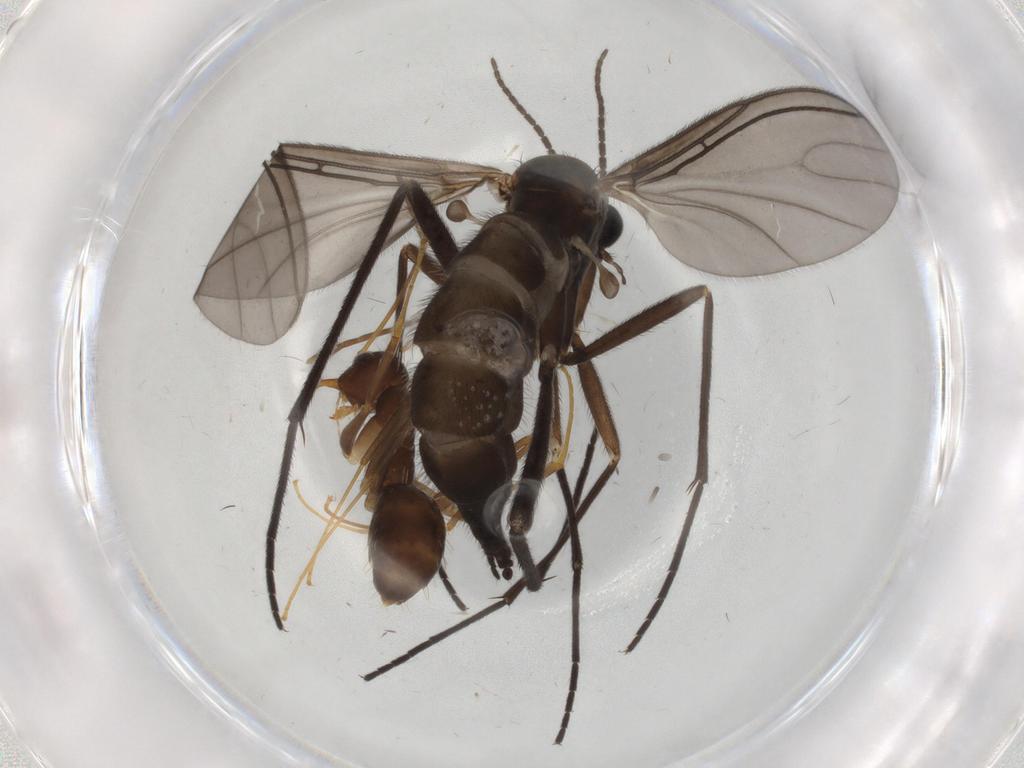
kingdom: Animalia
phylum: Arthropoda
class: Insecta
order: Diptera
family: Sciaridae
